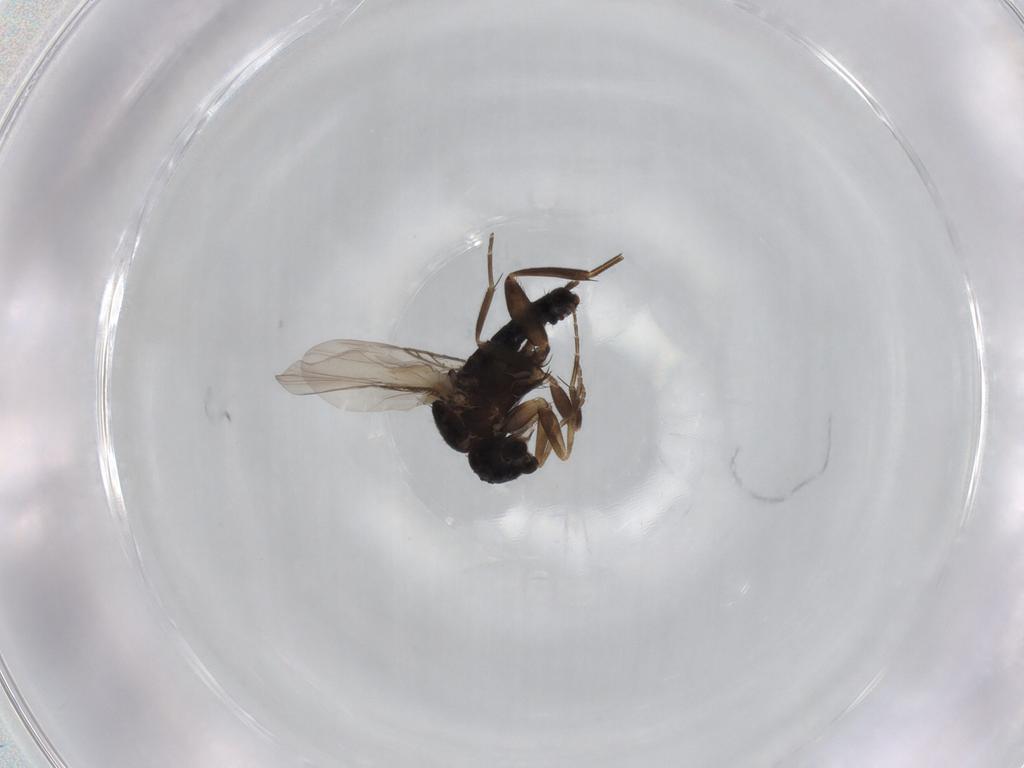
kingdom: Animalia
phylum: Arthropoda
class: Insecta
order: Diptera
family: Phoridae
